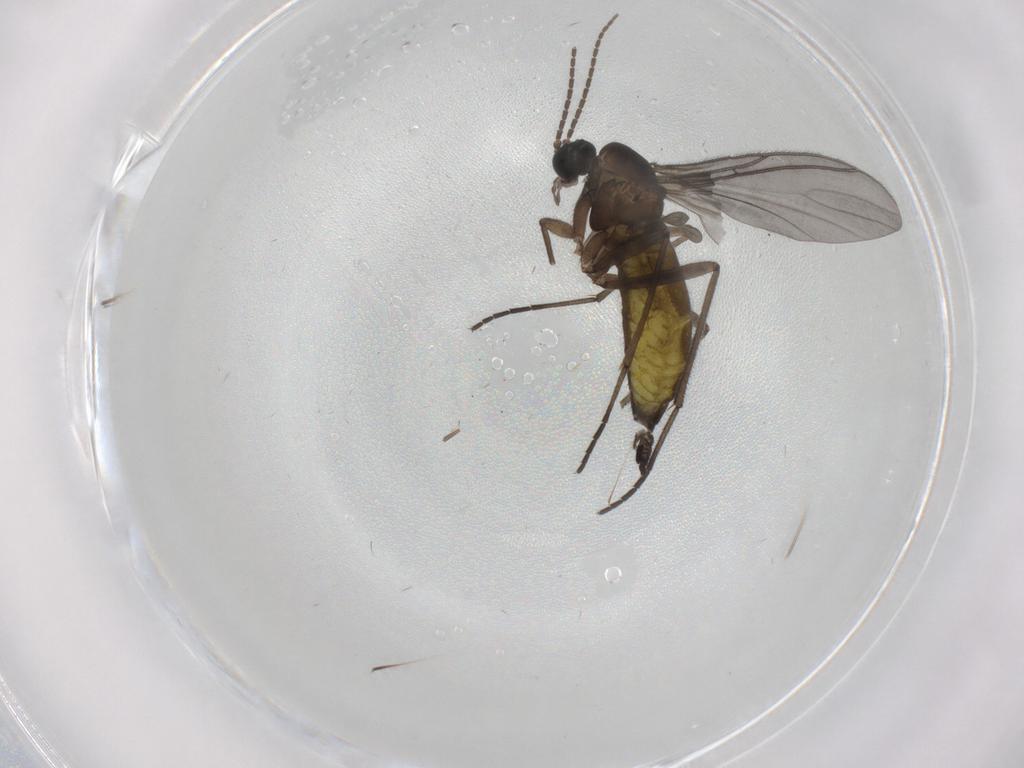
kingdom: Animalia
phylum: Arthropoda
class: Insecta
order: Diptera
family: Sciaridae
